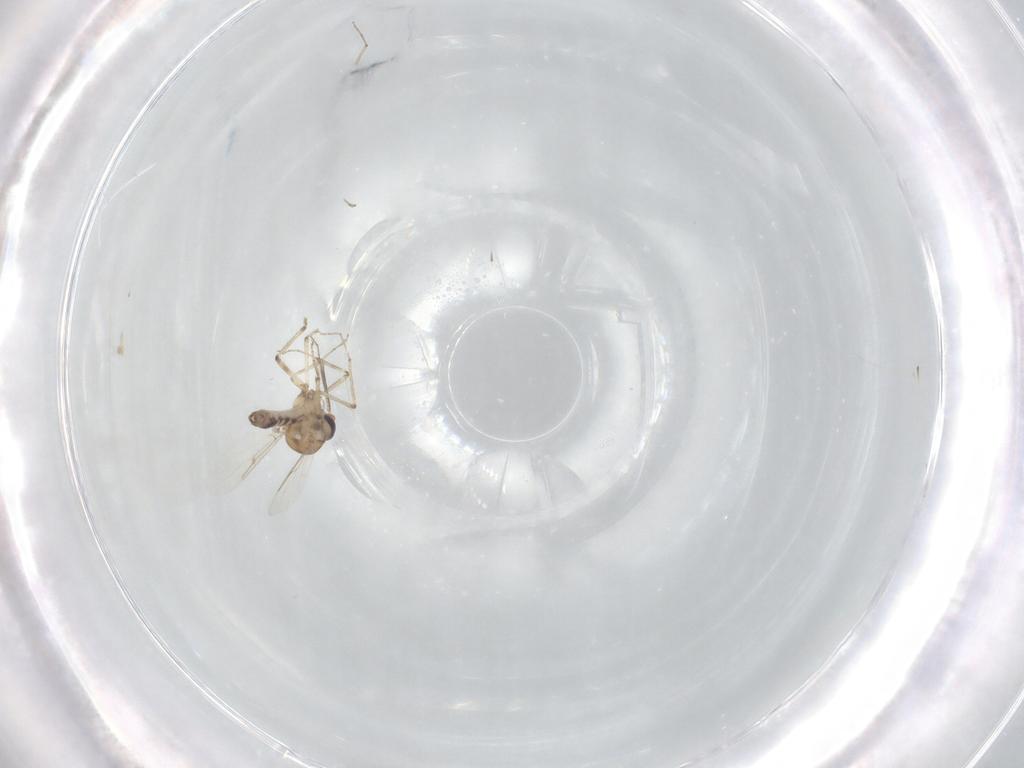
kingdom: Animalia
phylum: Arthropoda
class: Insecta
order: Diptera
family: Ceratopogonidae
